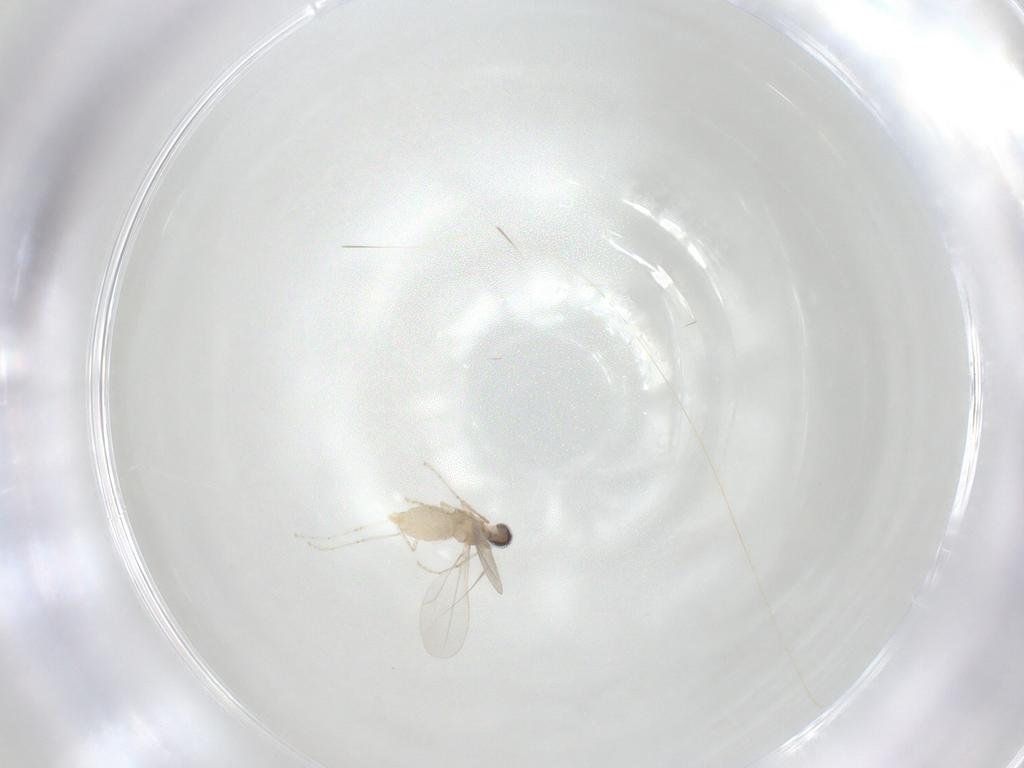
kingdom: Animalia
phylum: Arthropoda
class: Insecta
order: Diptera
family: Cecidomyiidae
